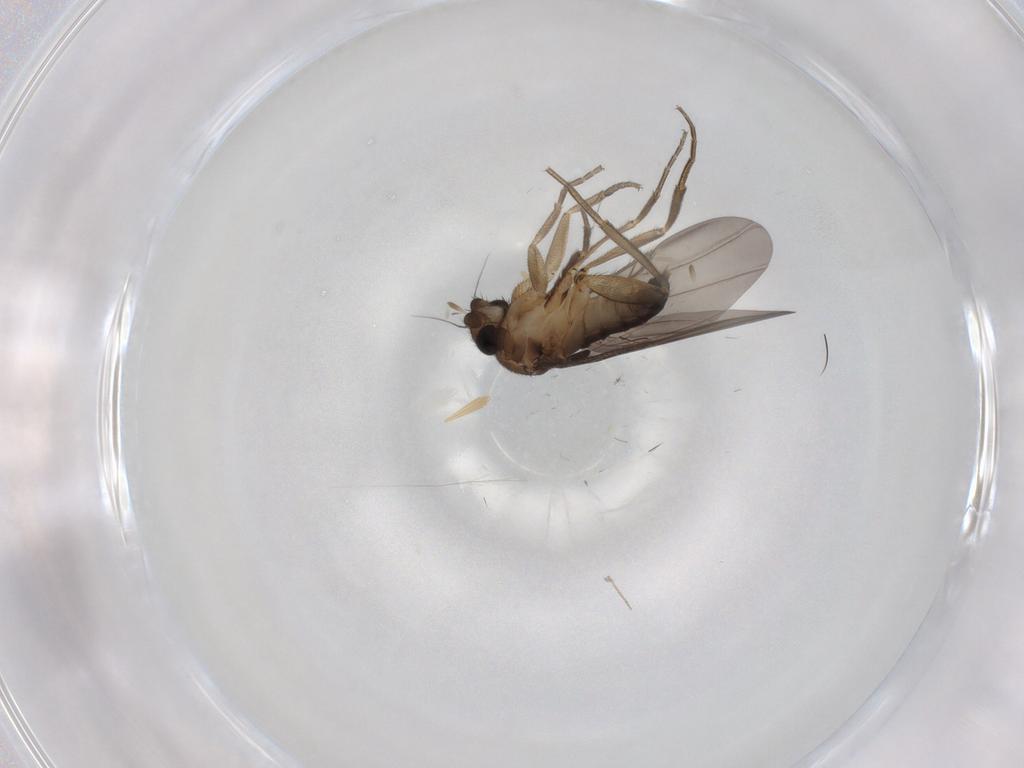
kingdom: Animalia
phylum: Arthropoda
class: Insecta
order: Diptera
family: Phoridae
